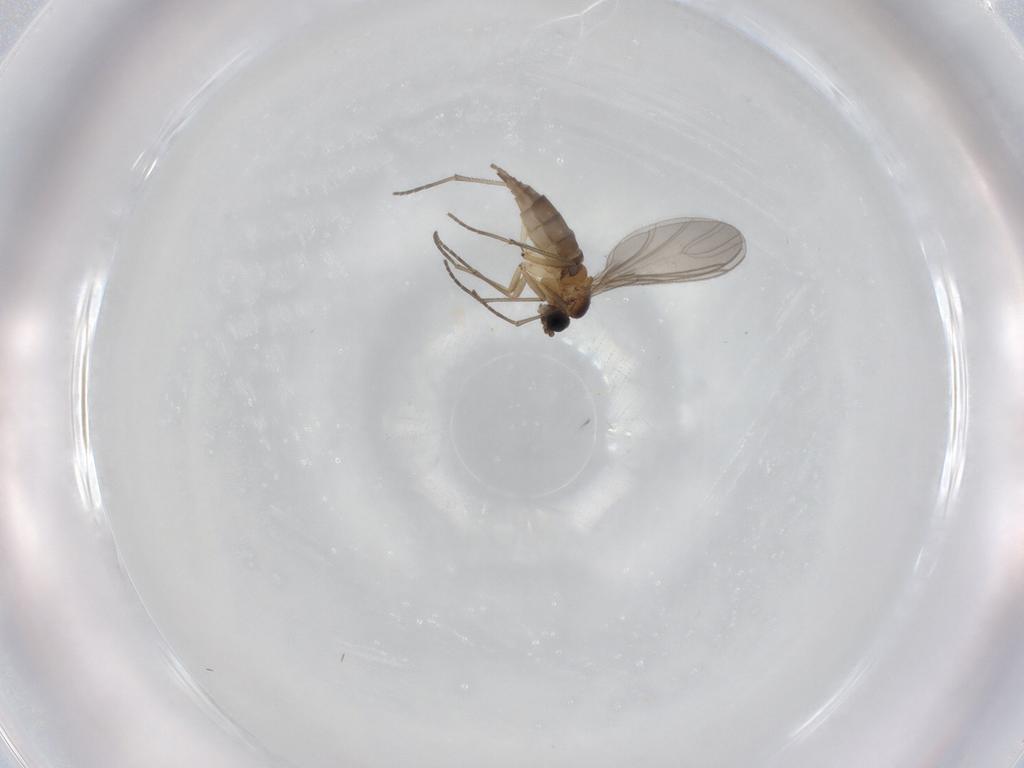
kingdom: Animalia
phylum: Arthropoda
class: Insecta
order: Diptera
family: Sciaridae
